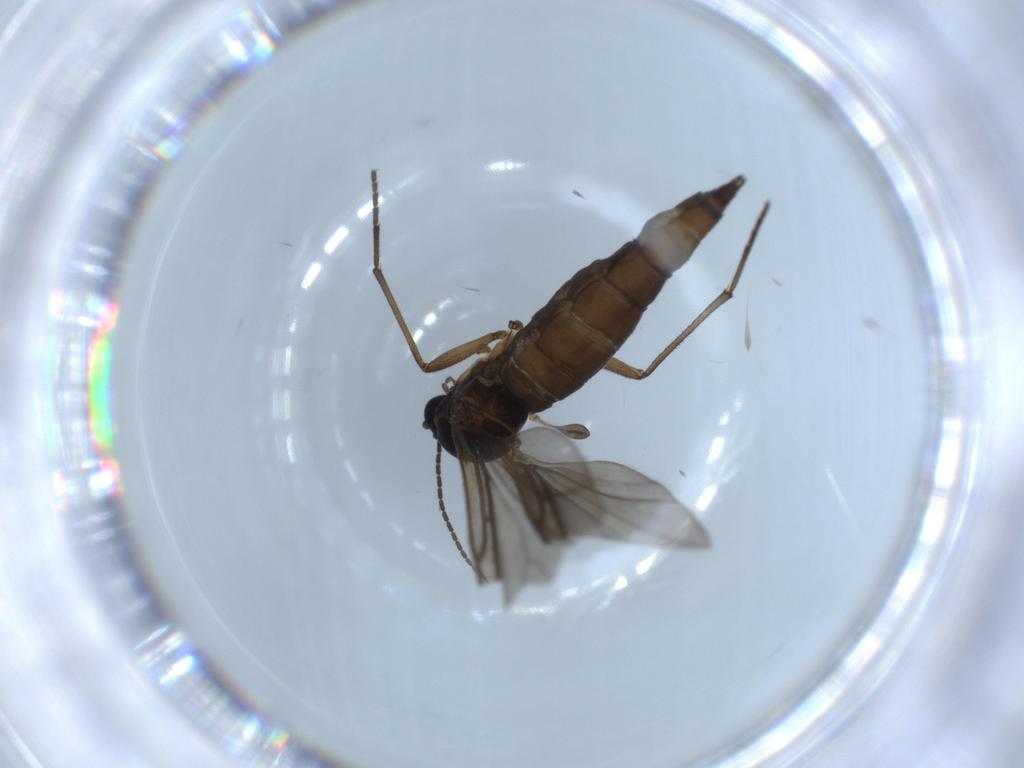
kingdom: Animalia
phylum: Arthropoda
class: Insecta
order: Diptera
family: Sciaridae
